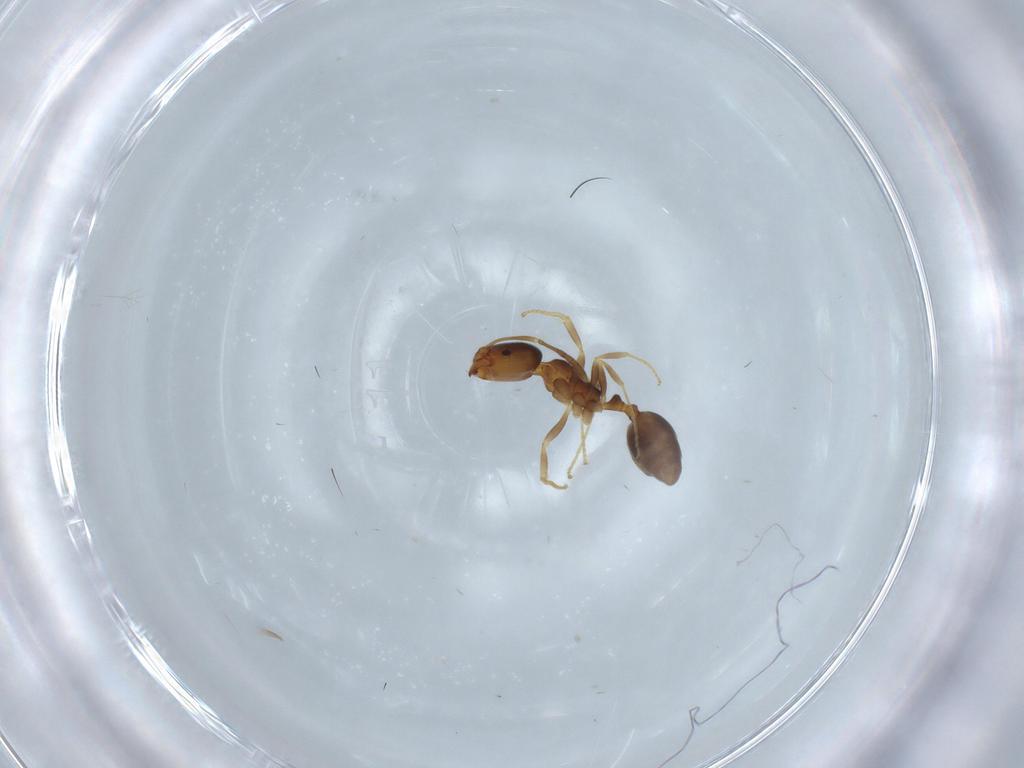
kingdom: Animalia
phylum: Arthropoda
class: Insecta
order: Hymenoptera
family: Formicidae
